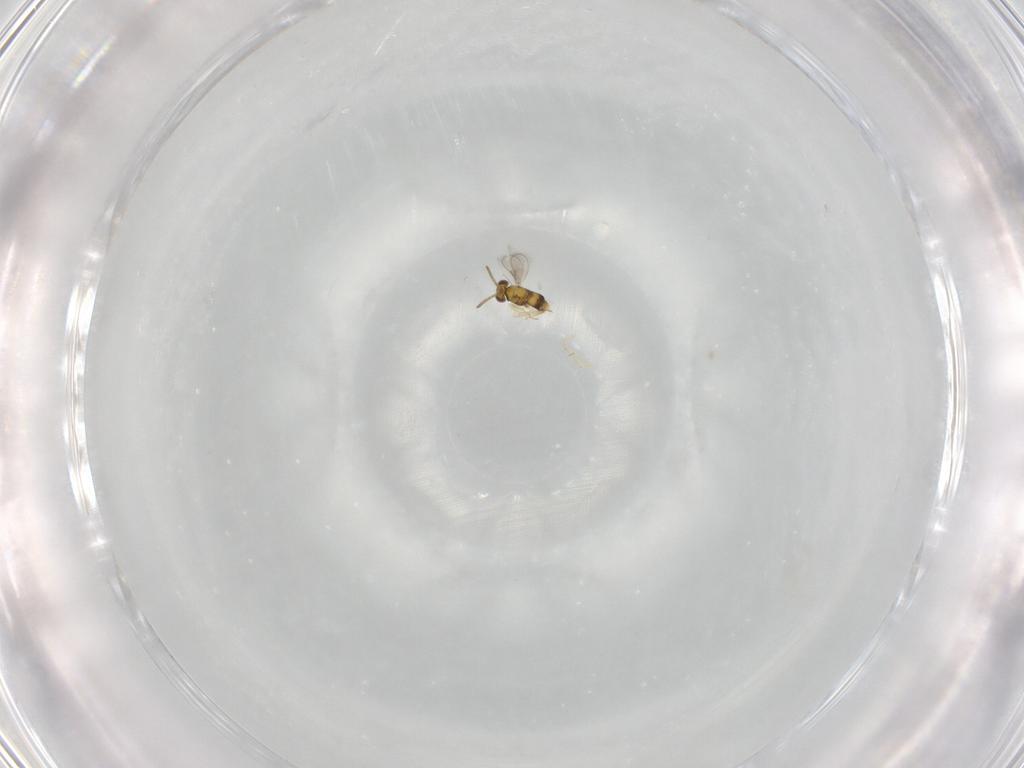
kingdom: Animalia
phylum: Arthropoda
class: Insecta
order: Hymenoptera
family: Aphelinidae
